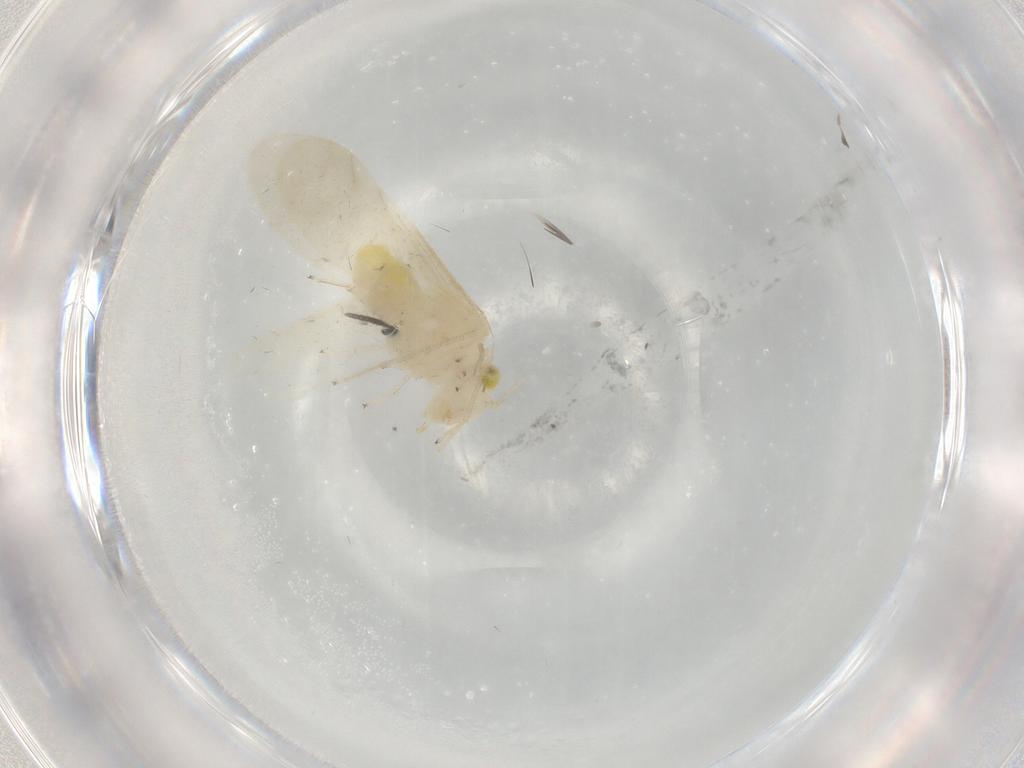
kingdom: Animalia
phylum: Arthropoda
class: Insecta
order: Psocodea
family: Caeciliusidae
